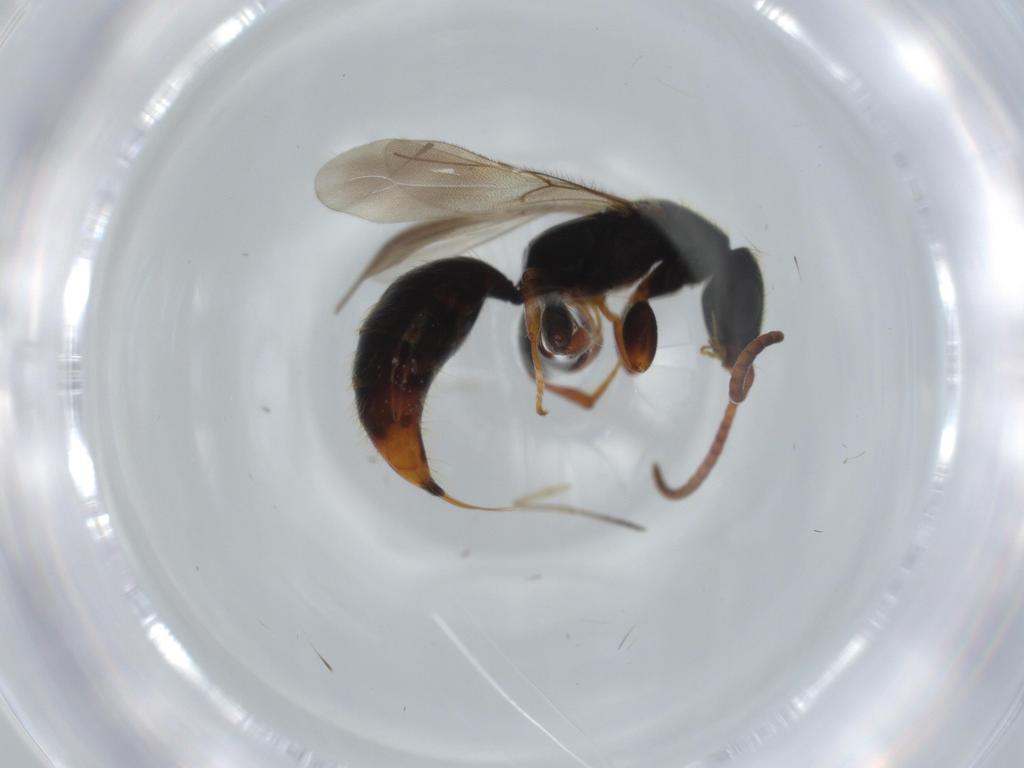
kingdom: Animalia
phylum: Arthropoda
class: Insecta
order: Hymenoptera
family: Bethylidae
